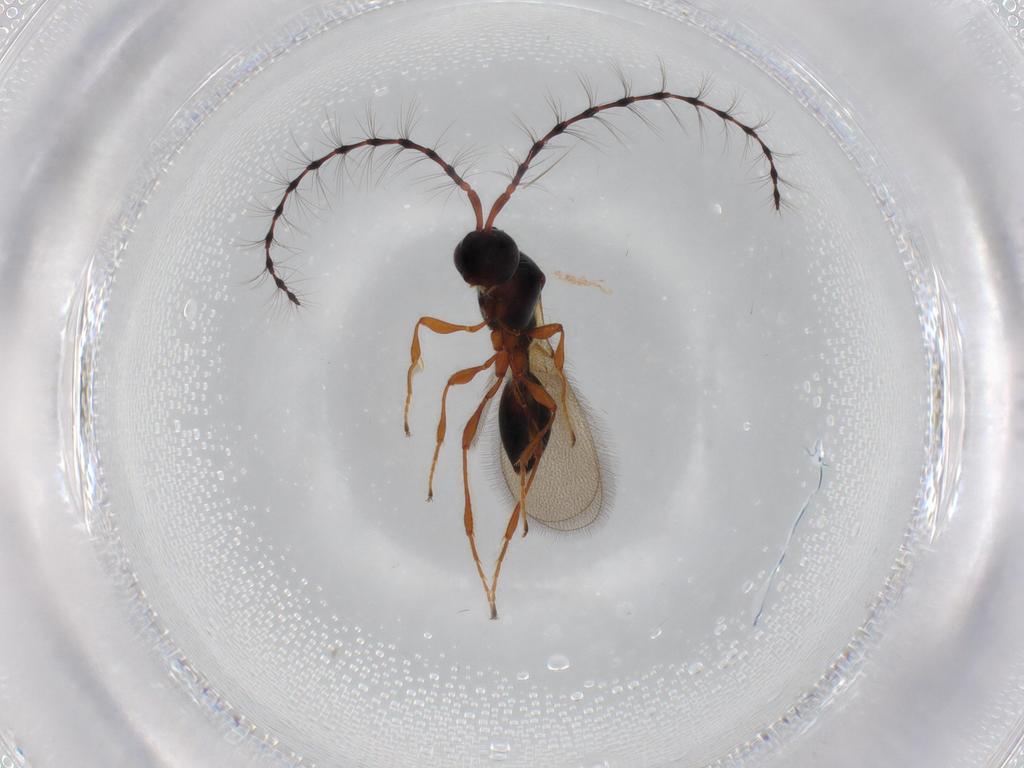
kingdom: Animalia
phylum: Arthropoda
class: Insecta
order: Hymenoptera
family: Diapriidae
